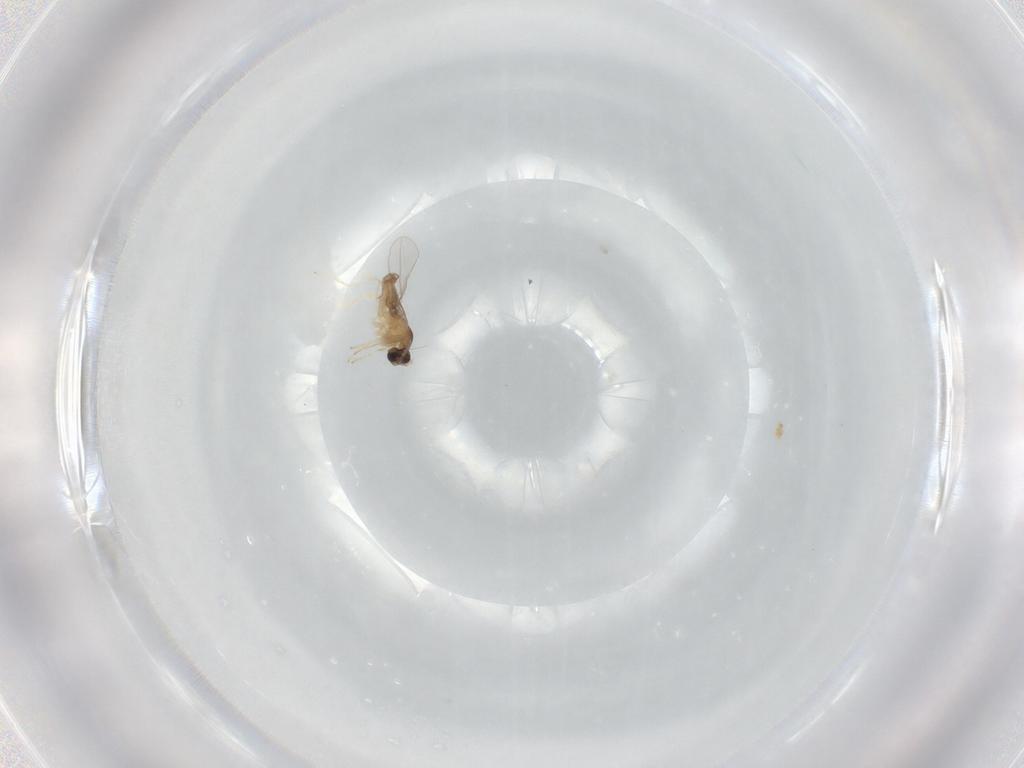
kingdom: Animalia
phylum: Arthropoda
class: Insecta
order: Diptera
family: Cecidomyiidae
